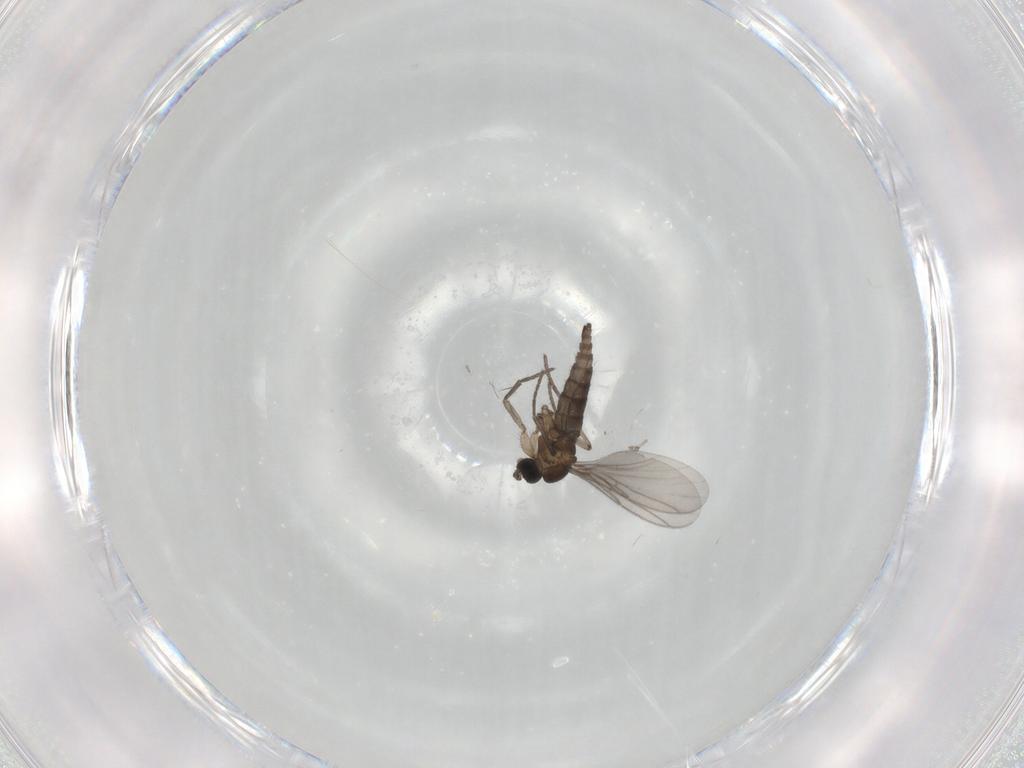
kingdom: Animalia
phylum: Arthropoda
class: Insecta
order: Diptera
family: Sciaridae
